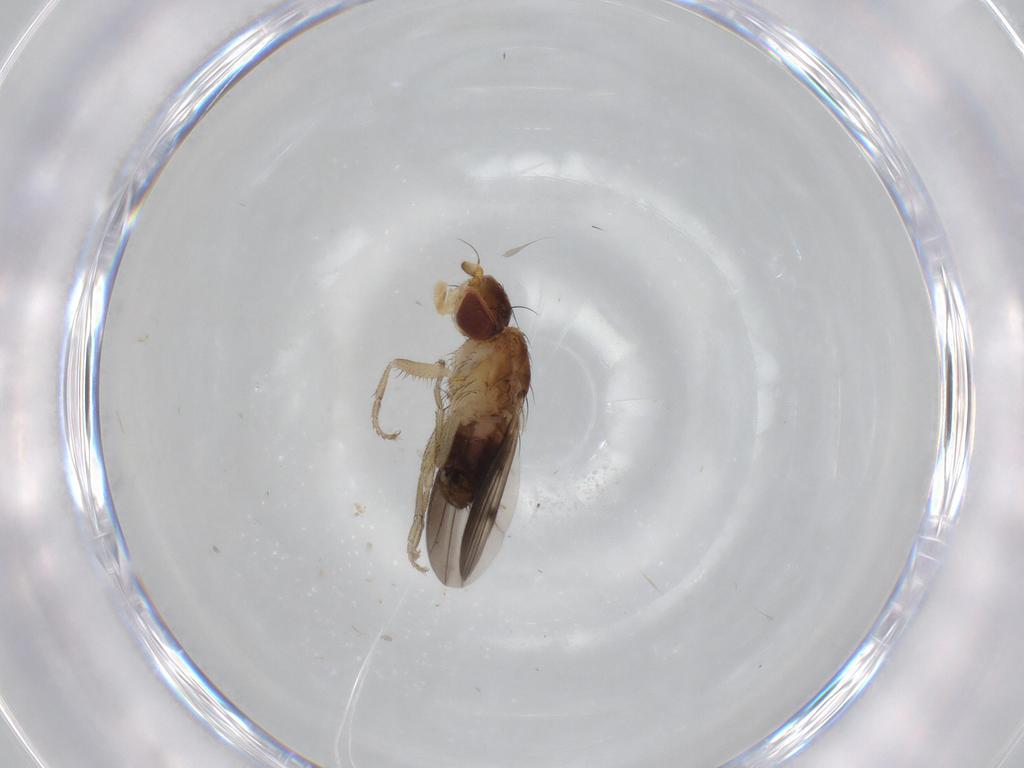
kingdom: Animalia
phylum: Arthropoda
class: Insecta
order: Diptera
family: Heleomyzidae
